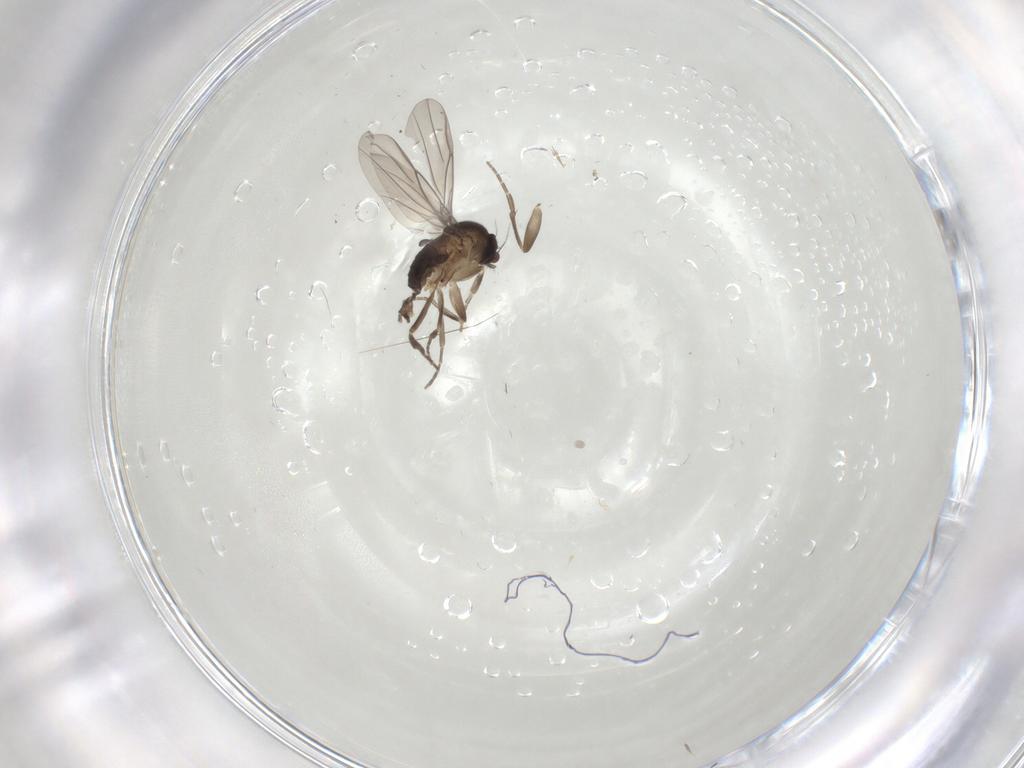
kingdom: Animalia
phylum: Arthropoda
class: Insecta
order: Diptera
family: Phoridae
